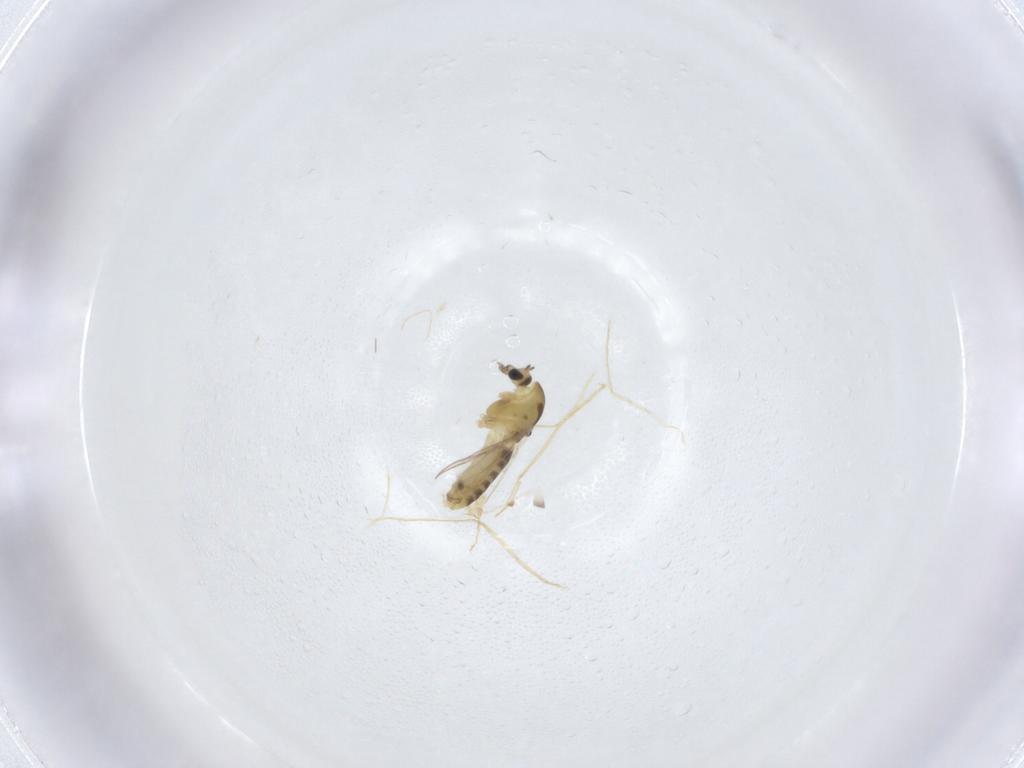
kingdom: Animalia
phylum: Arthropoda
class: Insecta
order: Diptera
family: Chironomidae
